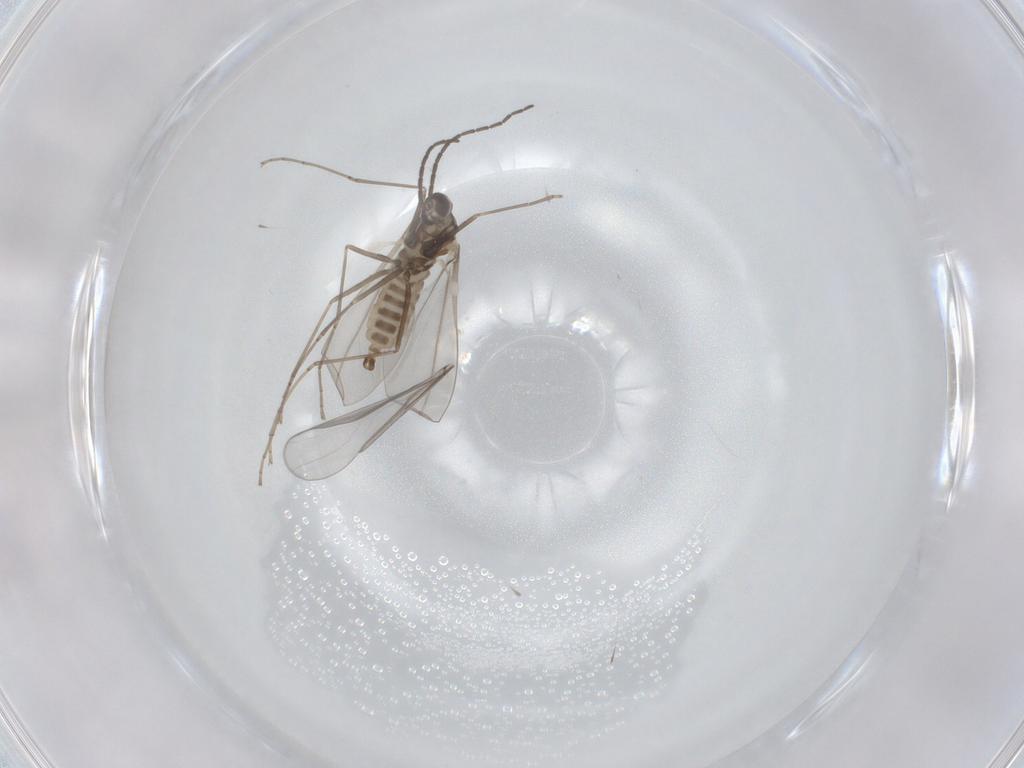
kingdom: Animalia
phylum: Arthropoda
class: Insecta
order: Diptera
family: Cecidomyiidae
